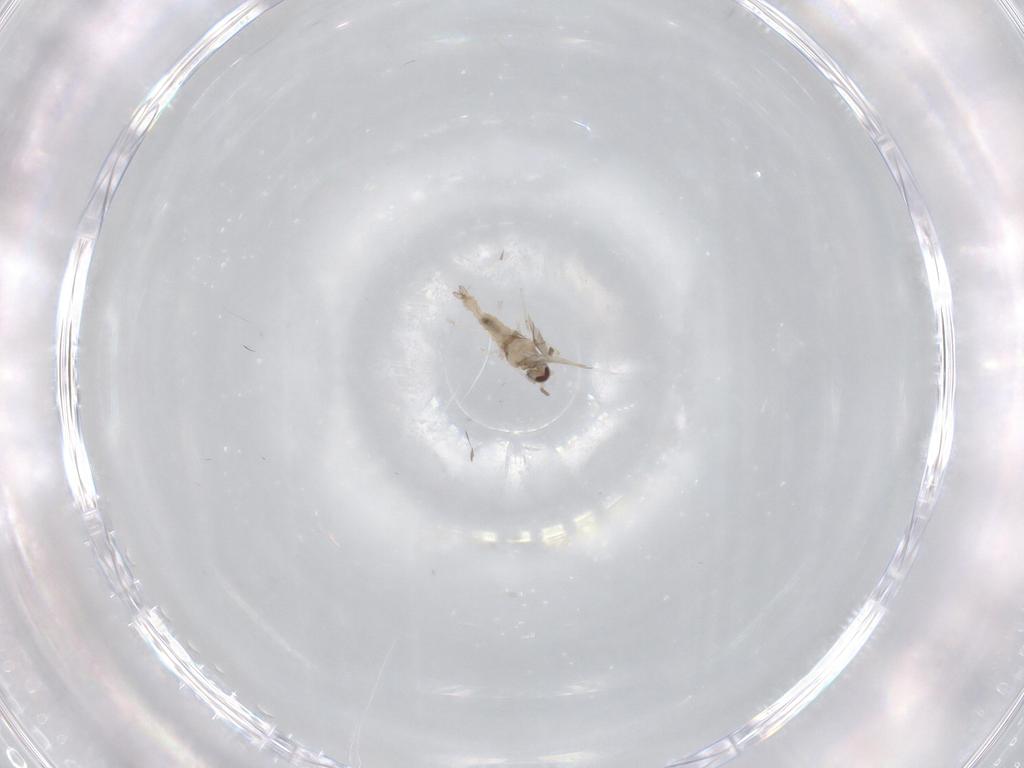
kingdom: Animalia
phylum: Arthropoda
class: Insecta
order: Diptera
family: Cecidomyiidae
